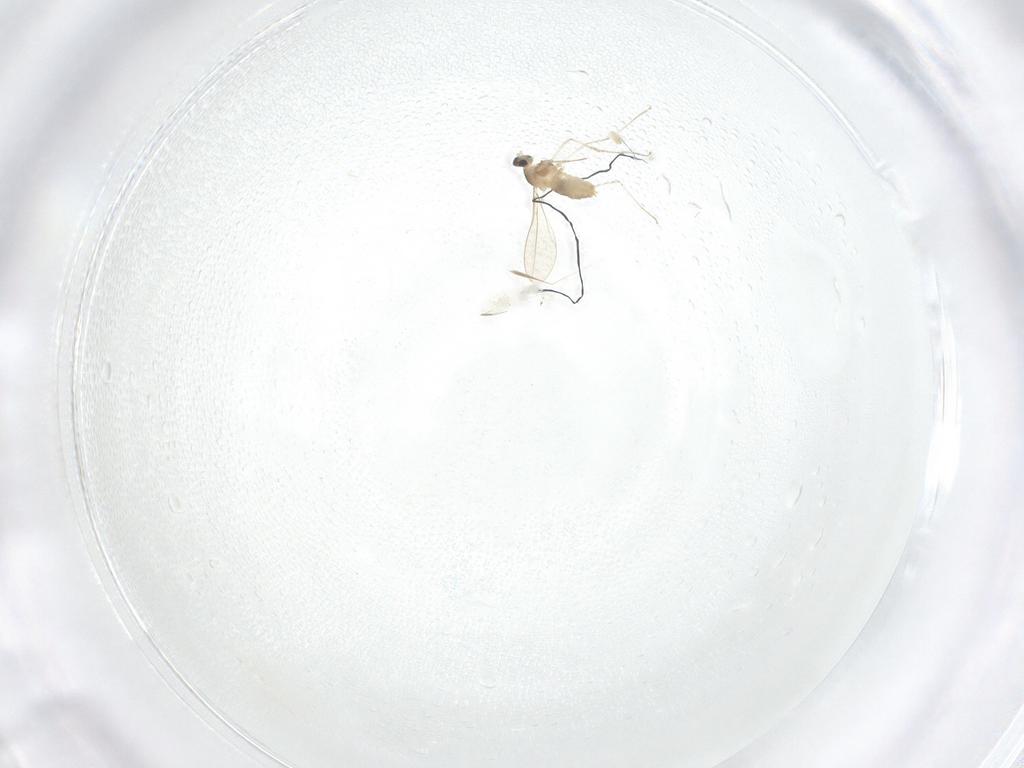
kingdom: Animalia
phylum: Arthropoda
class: Insecta
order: Diptera
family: Cecidomyiidae
